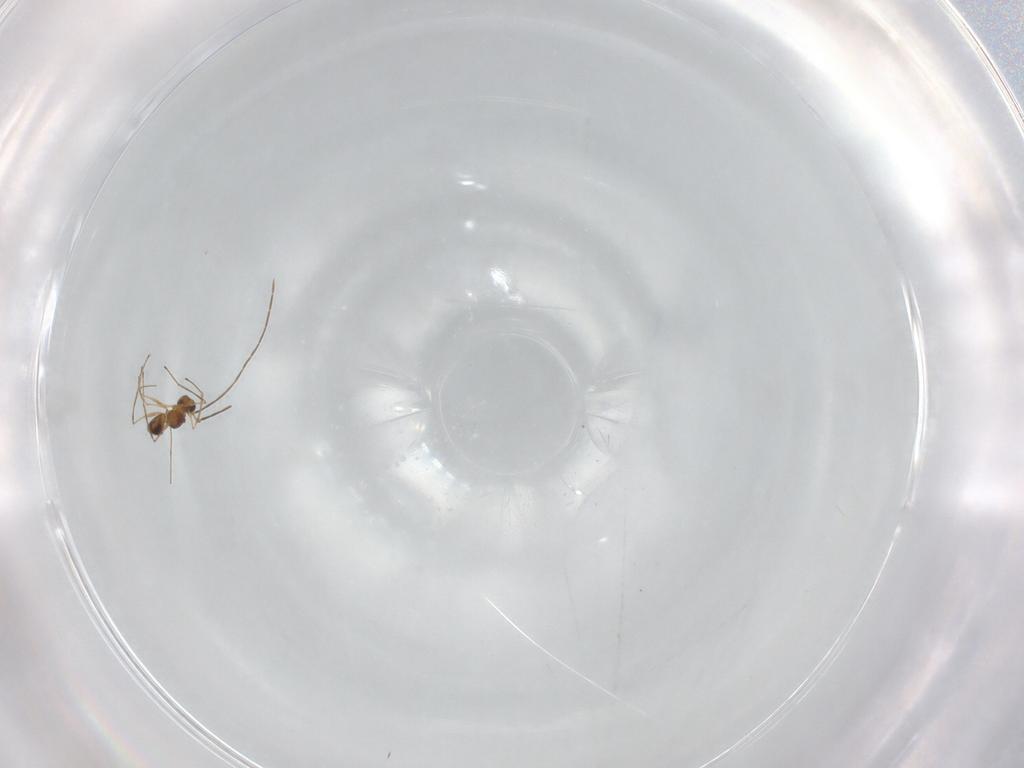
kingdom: Animalia
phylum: Arthropoda
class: Insecta
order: Hymenoptera
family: Mymaridae
